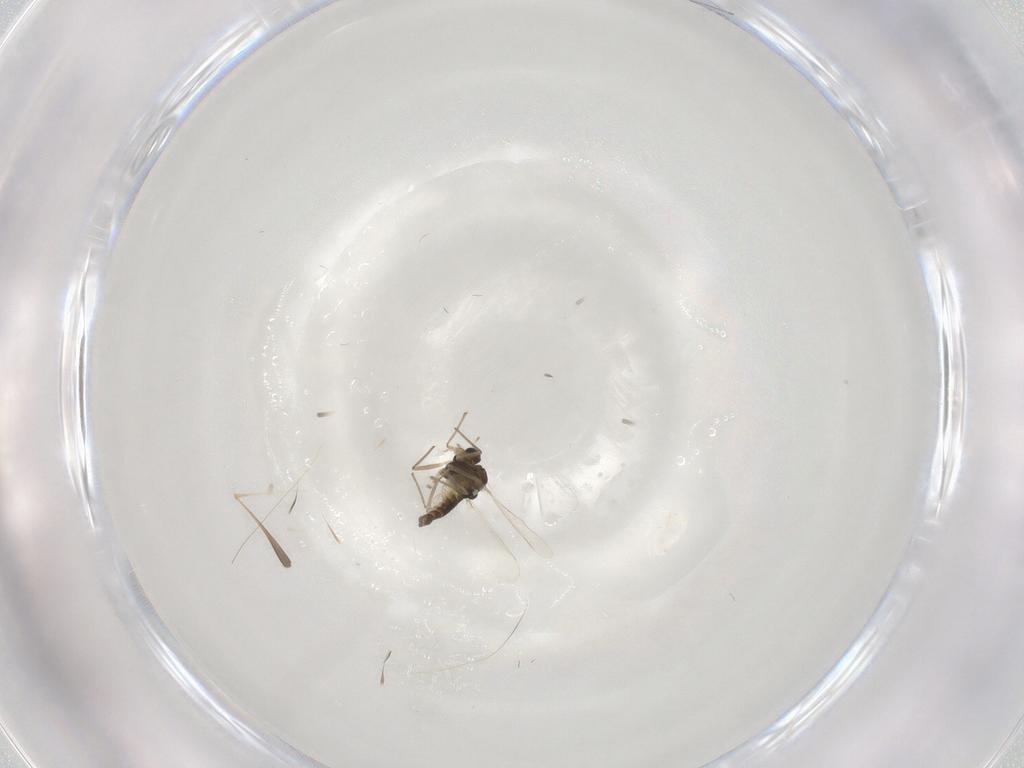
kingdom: Animalia
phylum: Arthropoda
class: Insecta
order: Diptera
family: Chironomidae
